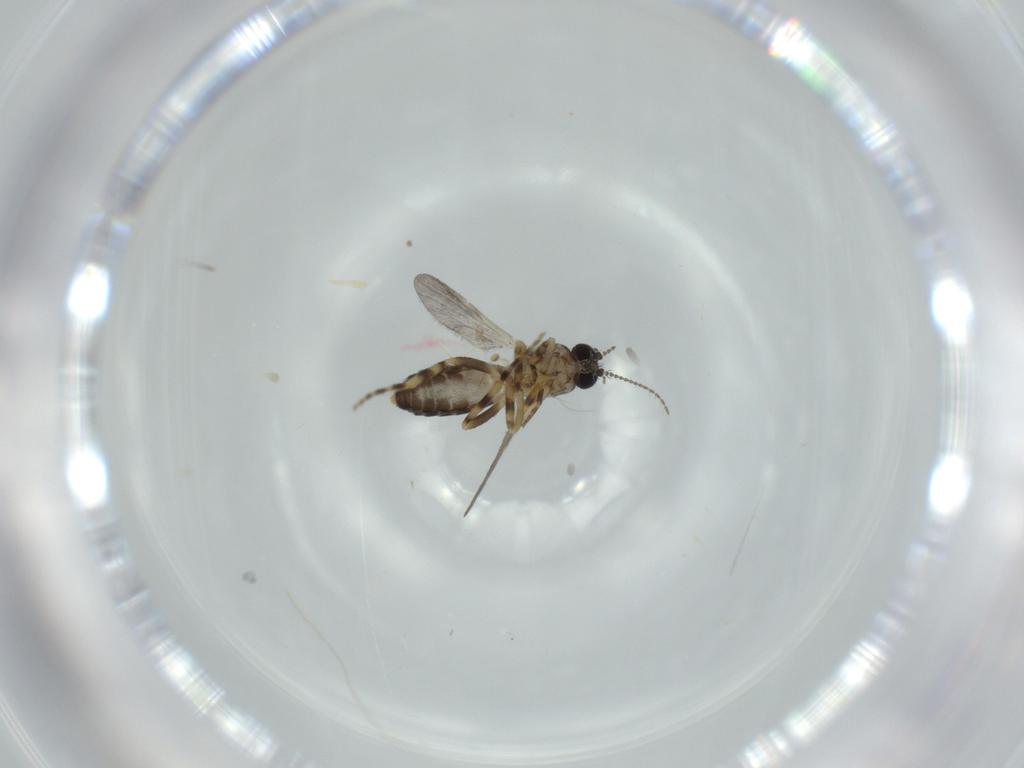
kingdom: Animalia
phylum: Arthropoda
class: Insecta
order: Diptera
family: Ceratopogonidae
